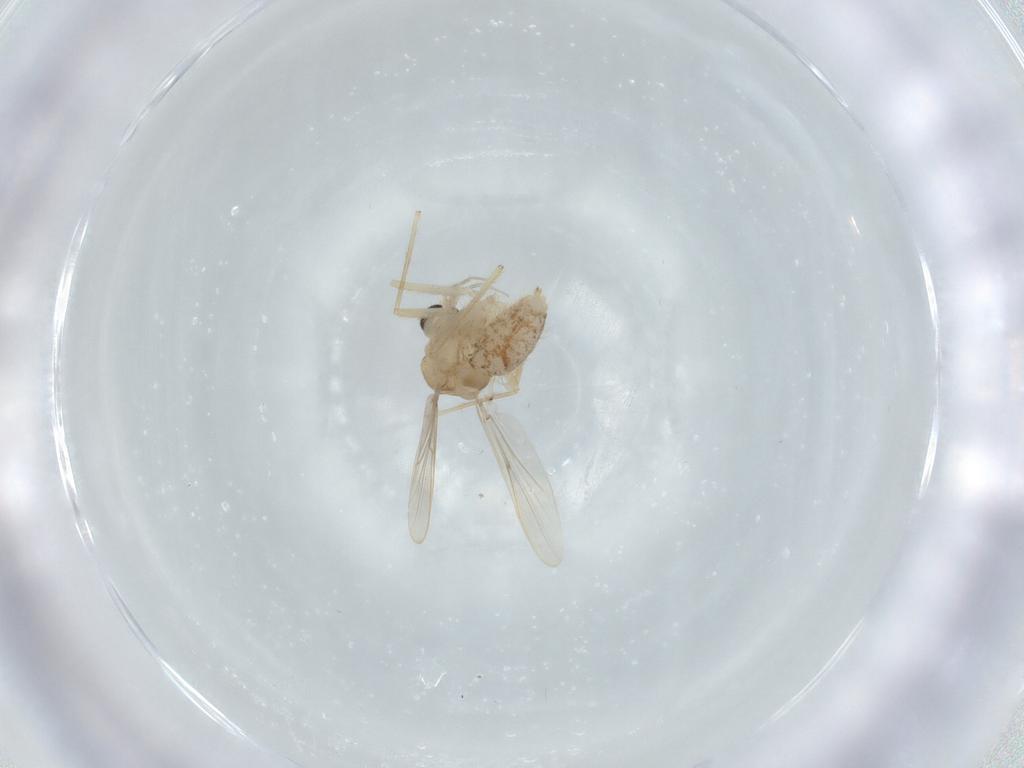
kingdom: Animalia
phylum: Arthropoda
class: Insecta
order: Diptera
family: Chironomidae
